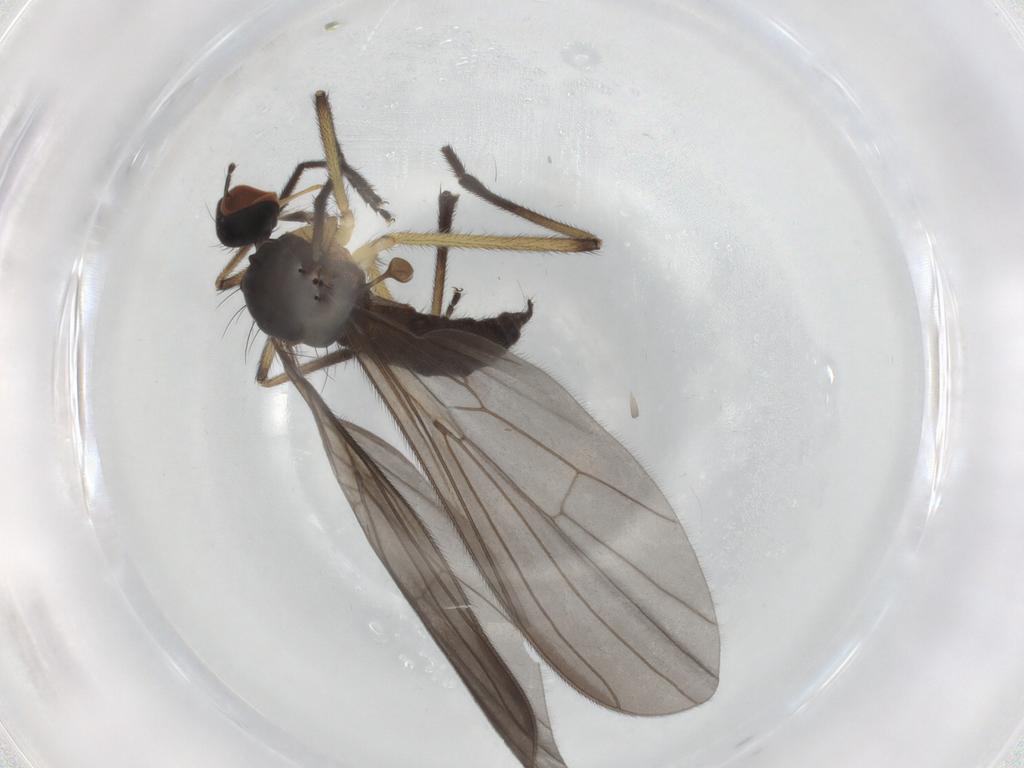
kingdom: Animalia
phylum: Arthropoda
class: Insecta
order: Diptera
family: Empididae
